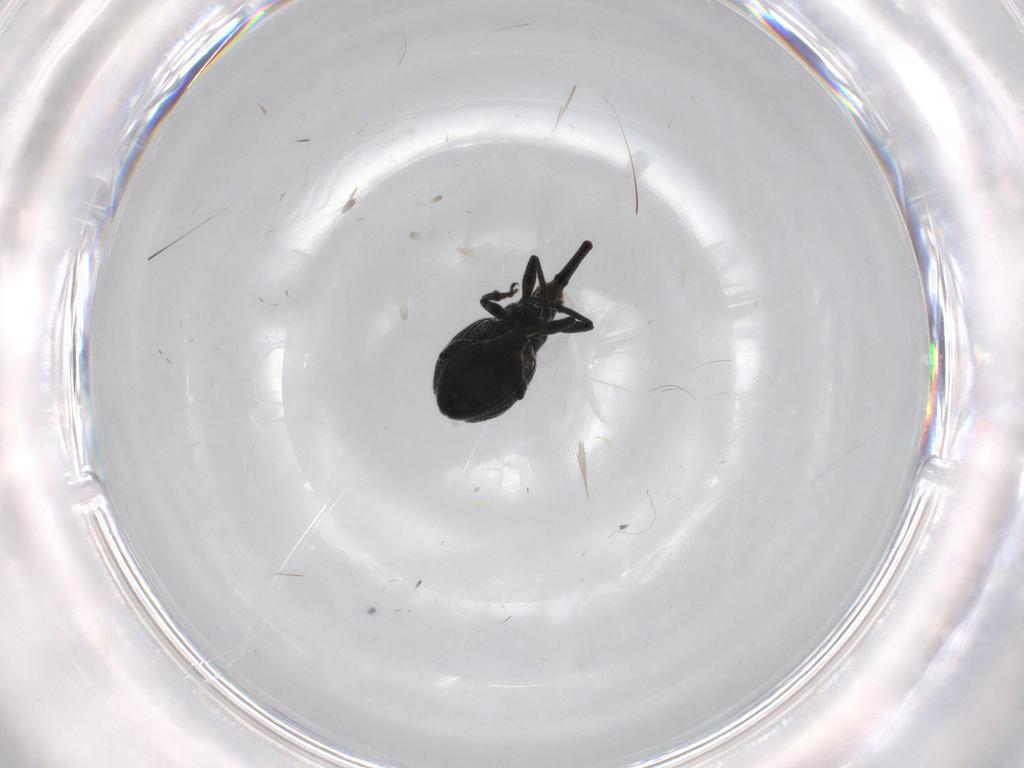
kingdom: Animalia
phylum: Arthropoda
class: Insecta
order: Coleoptera
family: Brentidae
